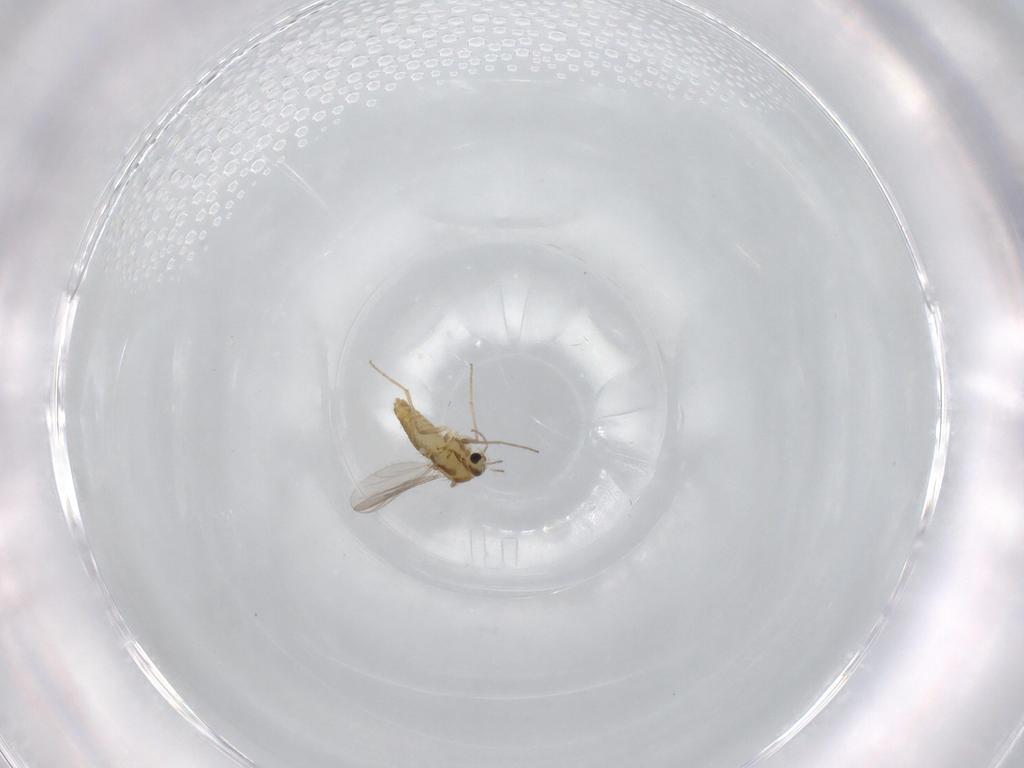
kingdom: Animalia
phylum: Arthropoda
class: Insecta
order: Diptera
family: Chironomidae
